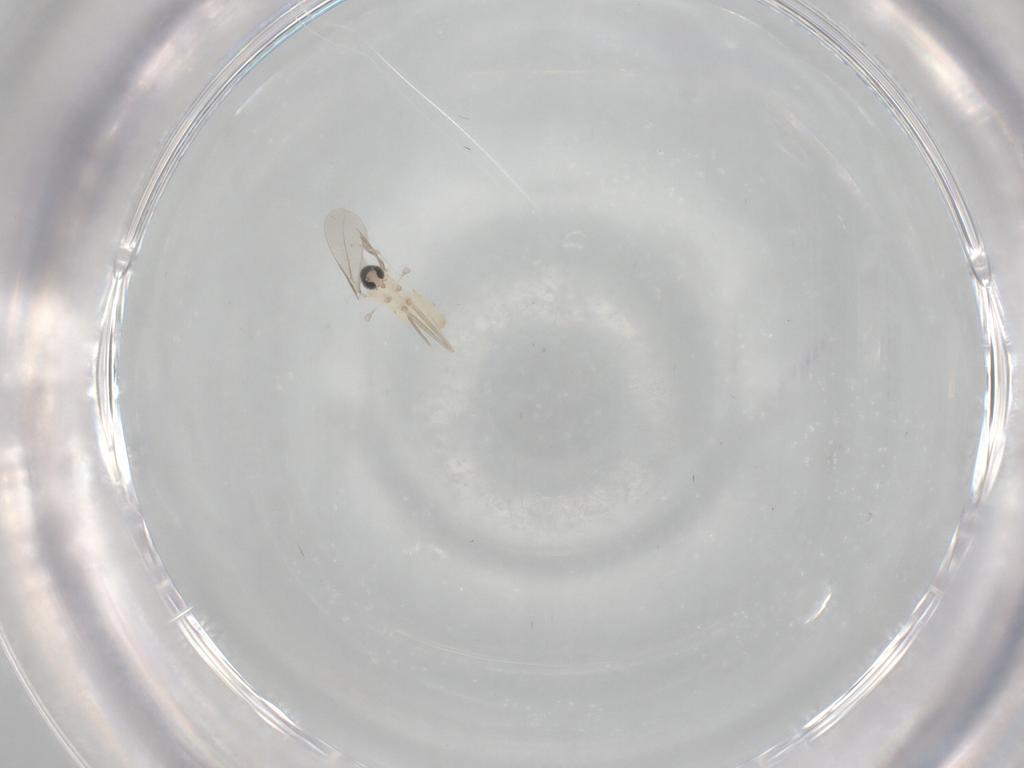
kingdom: Animalia
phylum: Arthropoda
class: Insecta
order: Diptera
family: Cecidomyiidae
